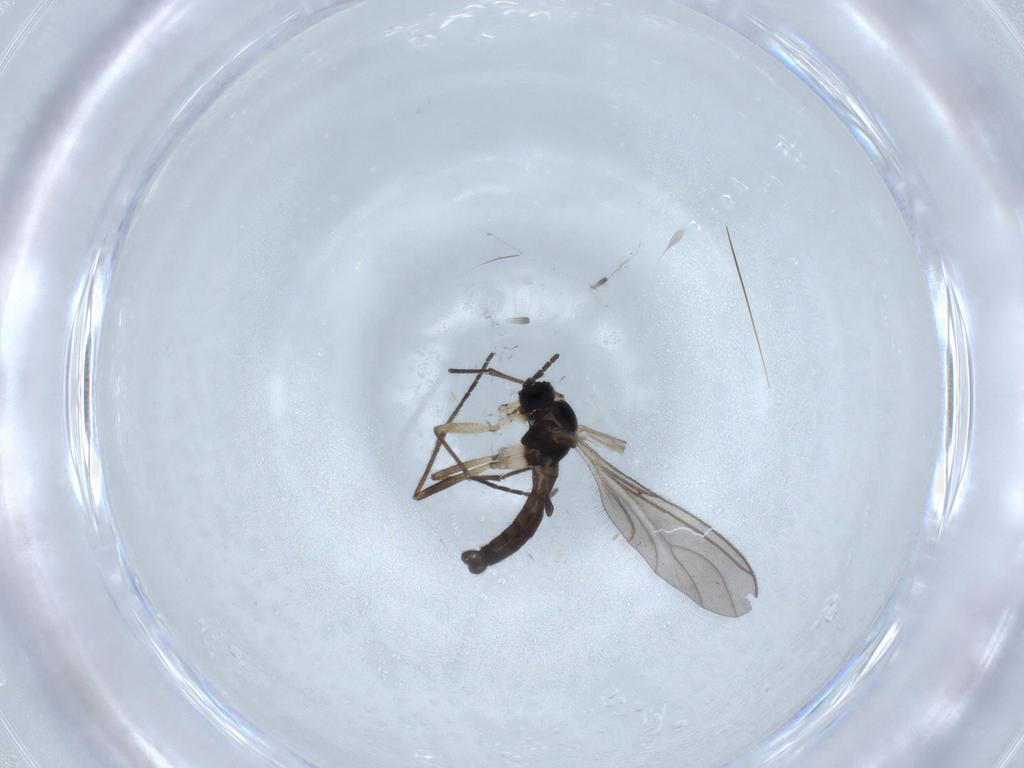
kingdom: Animalia
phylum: Arthropoda
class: Insecta
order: Diptera
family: Sciaridae
